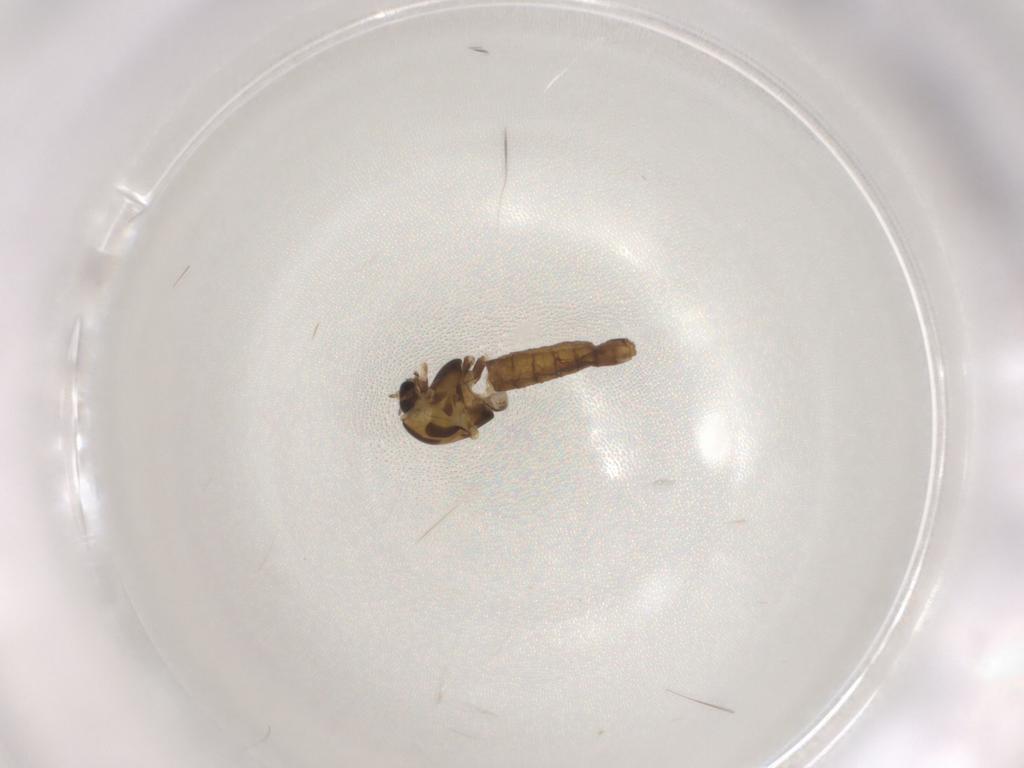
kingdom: Animalia
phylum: Arthropoda
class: Insecta
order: Diptera
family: Chironomidae
